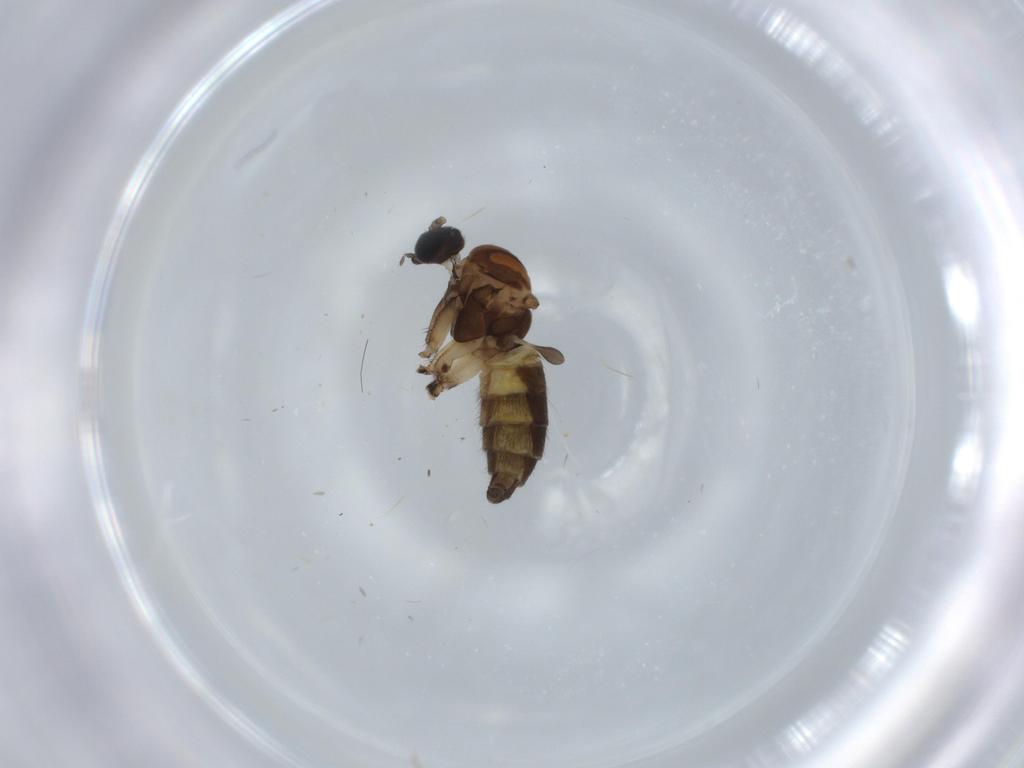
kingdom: Animalia
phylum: Arthropoda
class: Insecta
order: Diptera
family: Sciaridae
